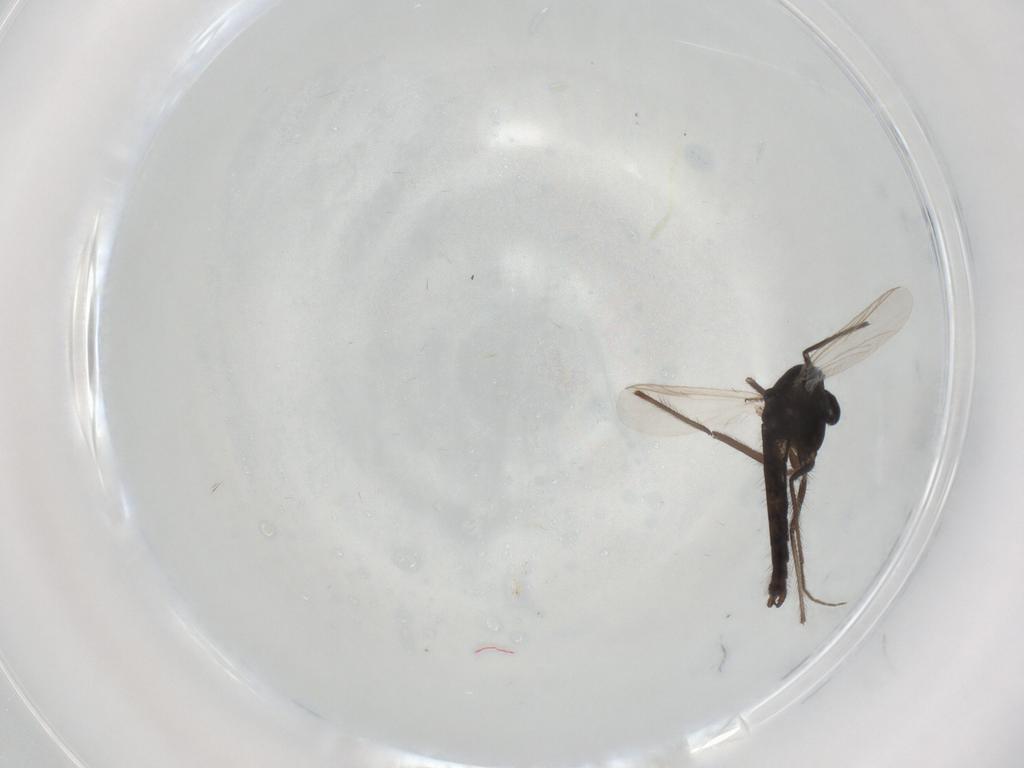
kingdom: Animalia
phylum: Arthropoda
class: Insecta
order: Diptera
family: Chironomidae
